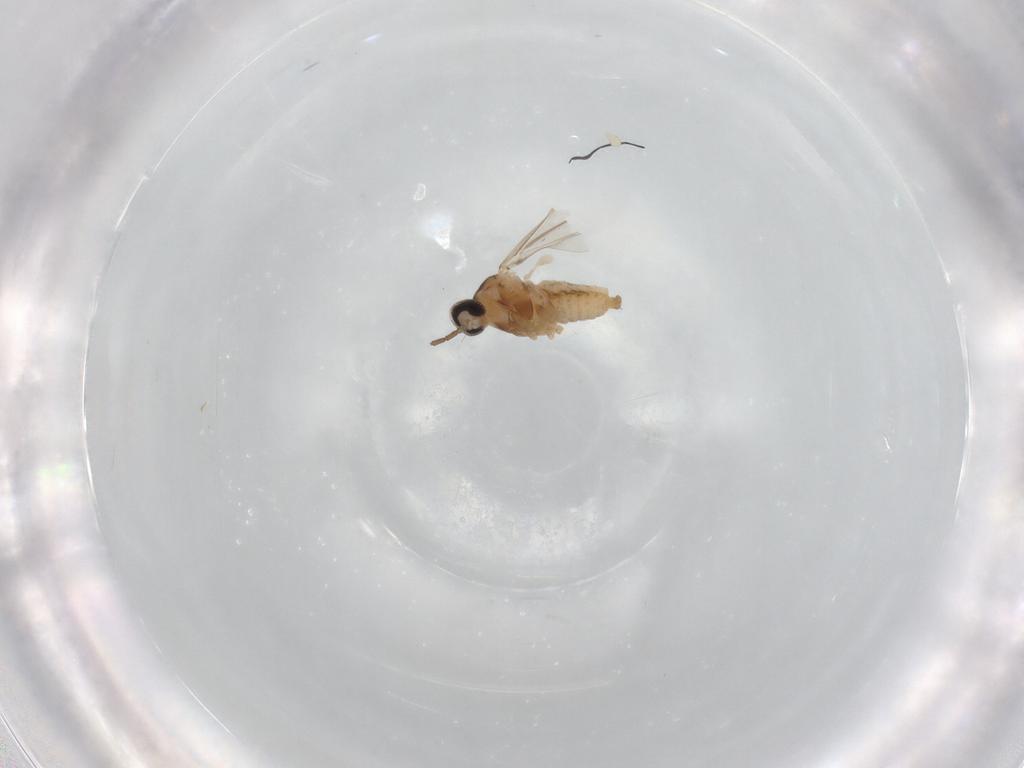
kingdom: Animalia
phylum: Arthropoda
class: Insecta
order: Diptera
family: Cecidomyiidae
